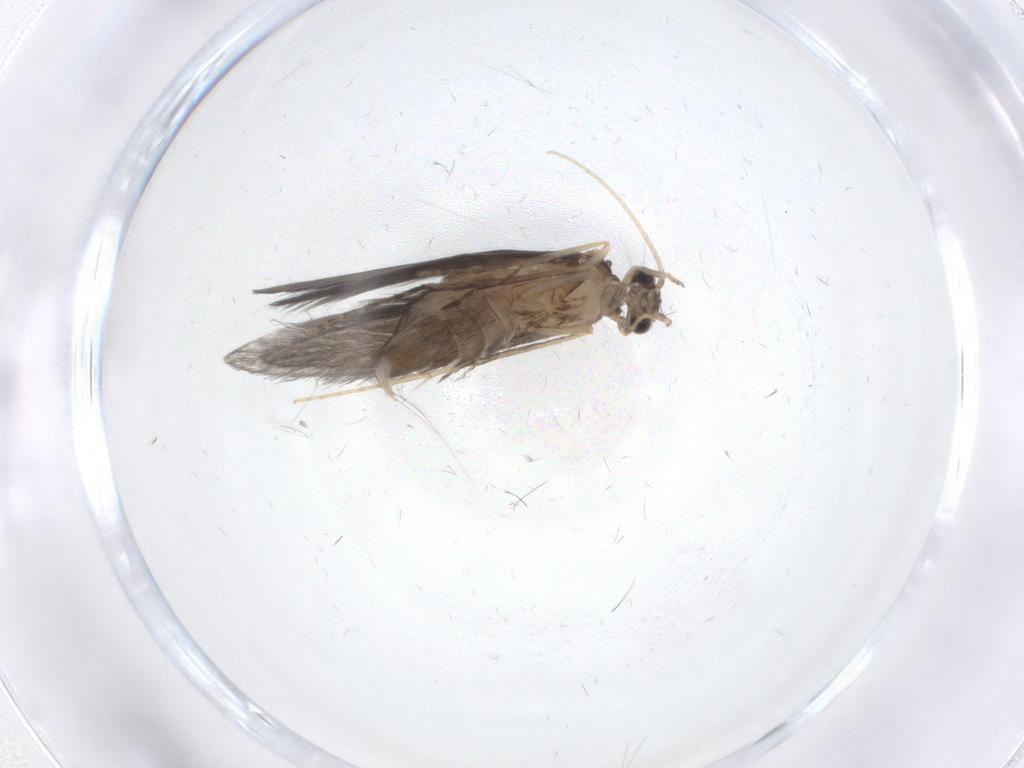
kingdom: Animalia
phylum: Arthropoda
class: Insecta
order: Trichoptera
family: Hydroptilidae
